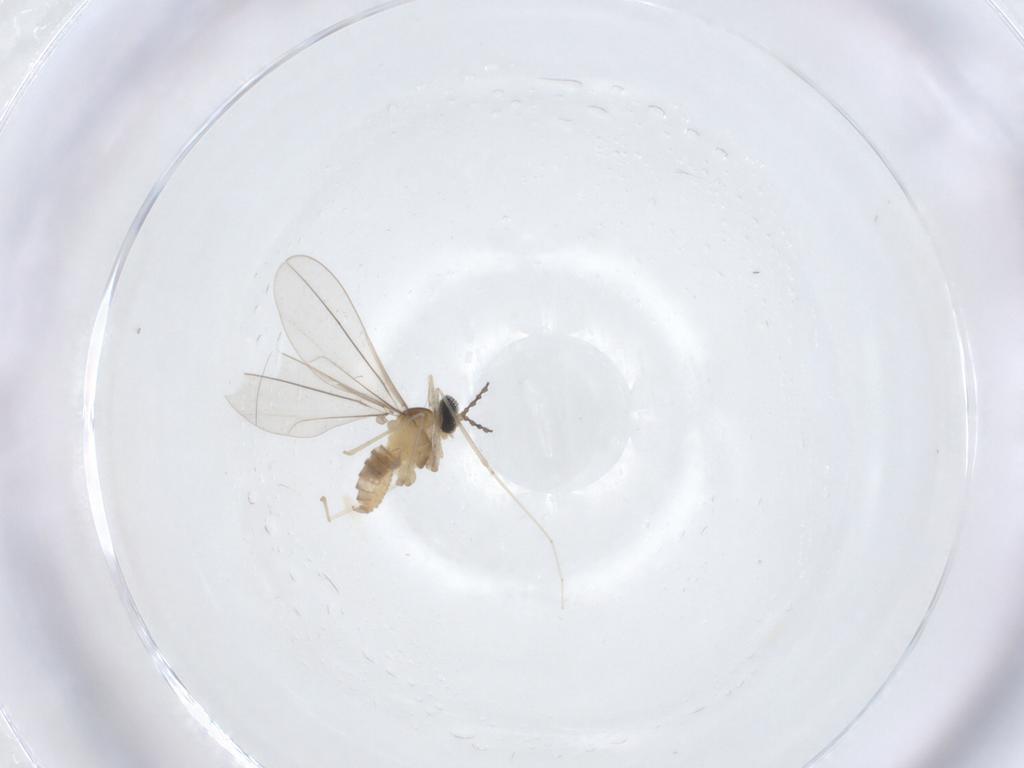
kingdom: Animalia
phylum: Arthropoda
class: Insecta
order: Diptera
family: Cecidomyiidae
